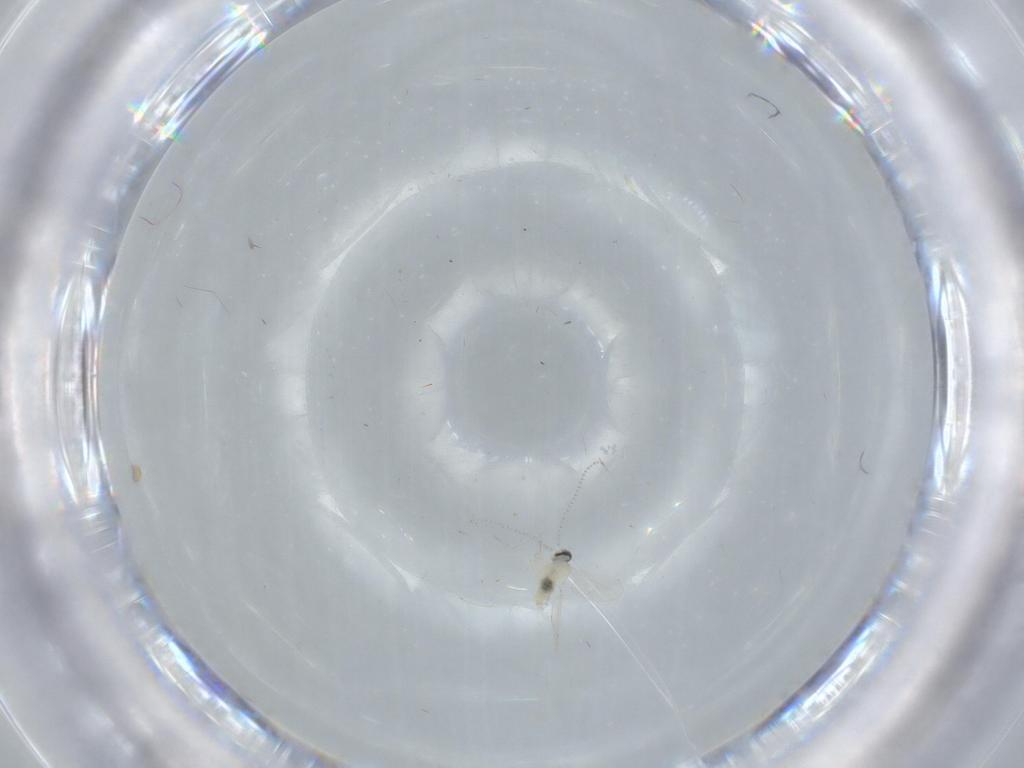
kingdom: Animalia
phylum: Arthropoda
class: Insecta
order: Diptera
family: Cecidomyiidae
